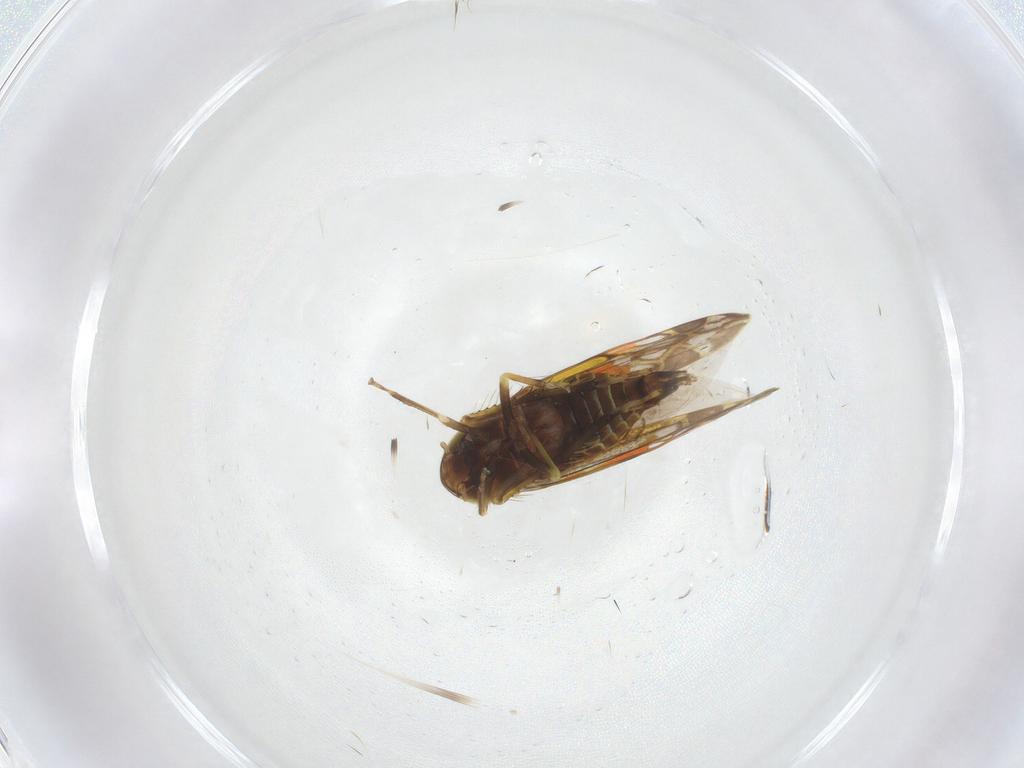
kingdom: Animalia
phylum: Arthropoda
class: Insecta
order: Hemiptera
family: Cicadellidae
